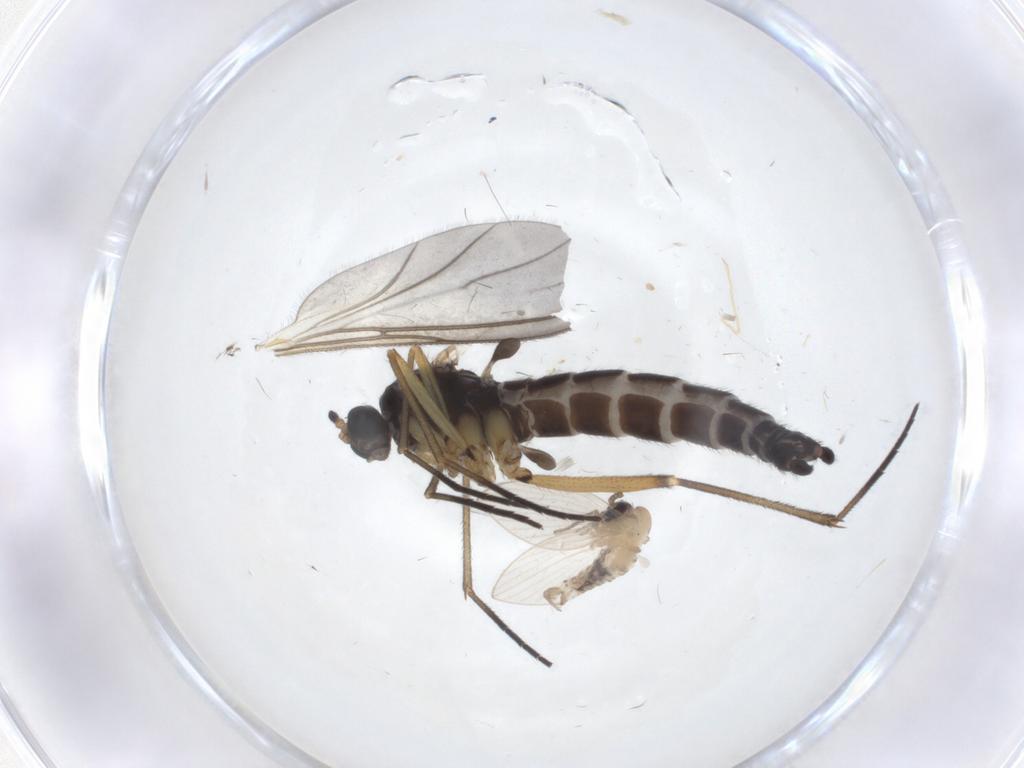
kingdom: Animalia
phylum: Arthropoda
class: Insecta
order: Diptera
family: Sciaridae
